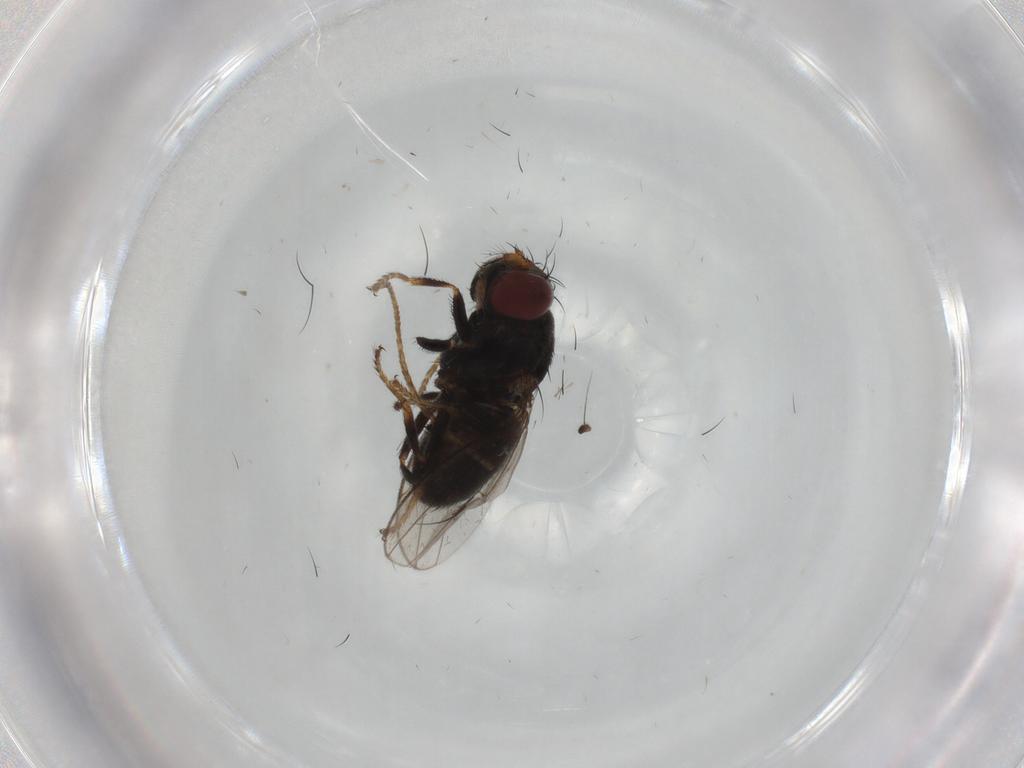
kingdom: Animalia
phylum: Arthropoda
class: Insecta
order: Diptera
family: Ephydridae
